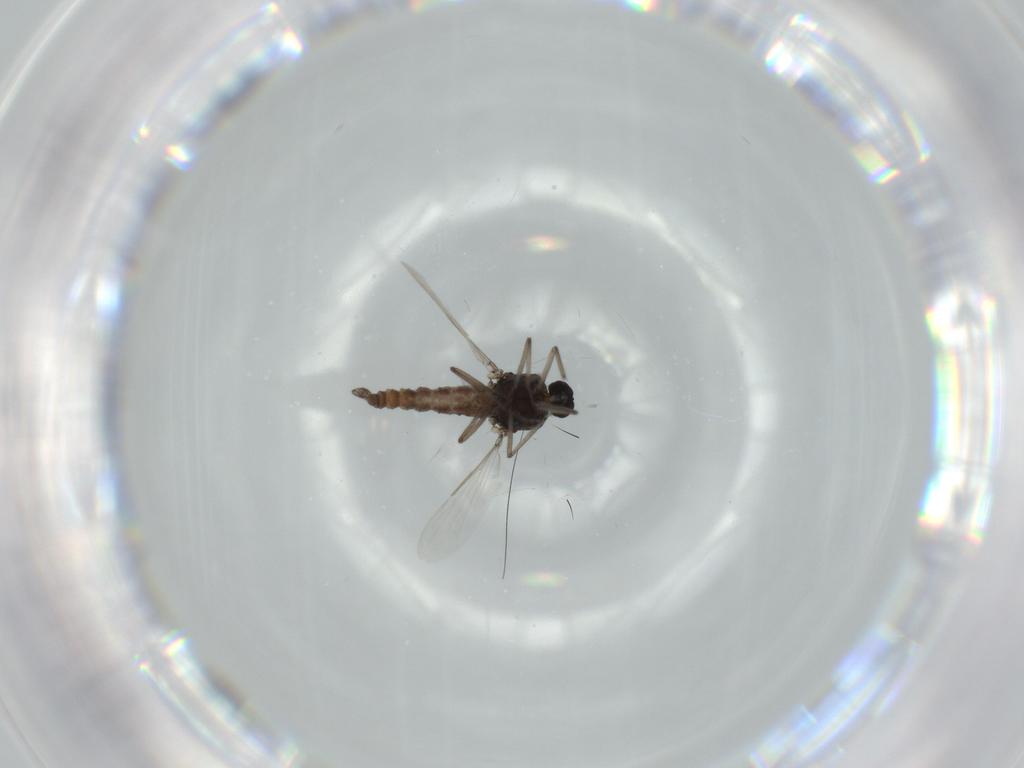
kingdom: Animalia
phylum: Arthropoda
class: Insecta
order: Diptera
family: Ceratopogonidae
